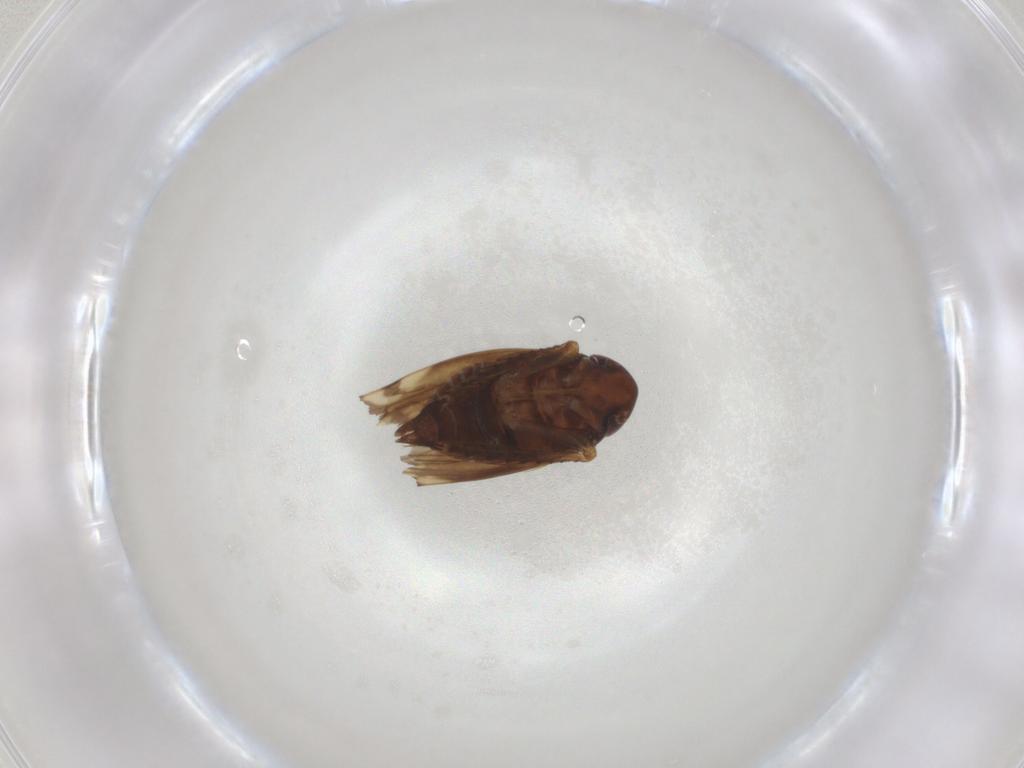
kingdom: Animalia
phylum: Arthropoda
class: Insecta
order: Hemiptera
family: Cicadellidae
